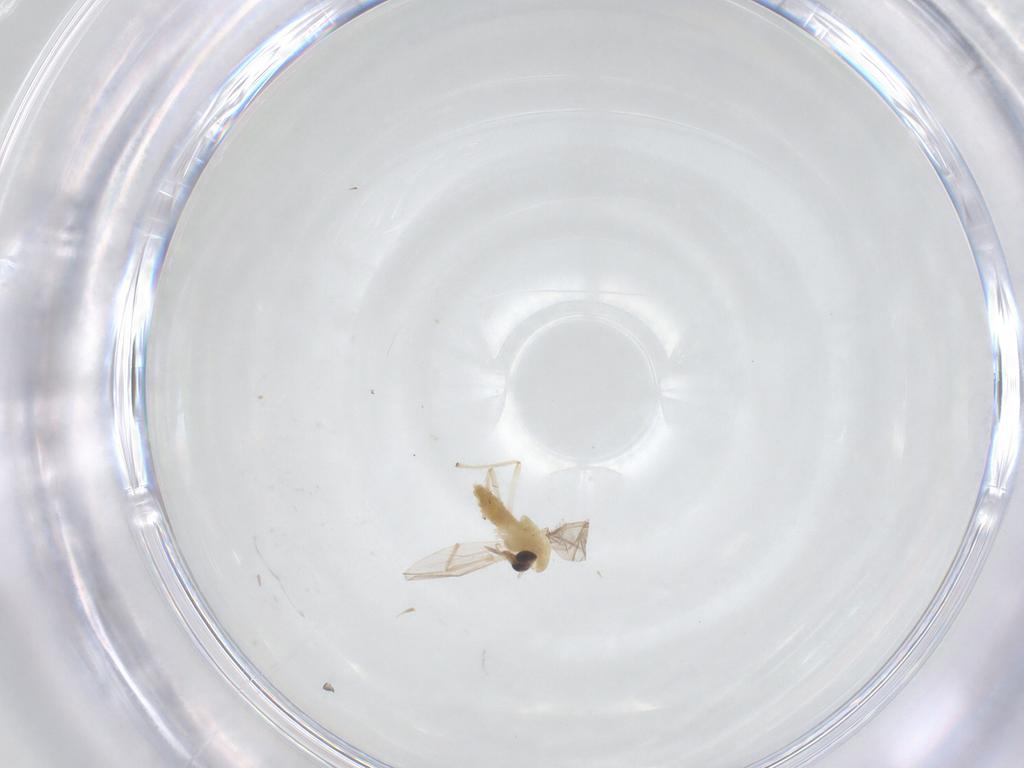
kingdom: Animalia
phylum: Arthropoda
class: Insecta
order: Diptera
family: Chironomidae
